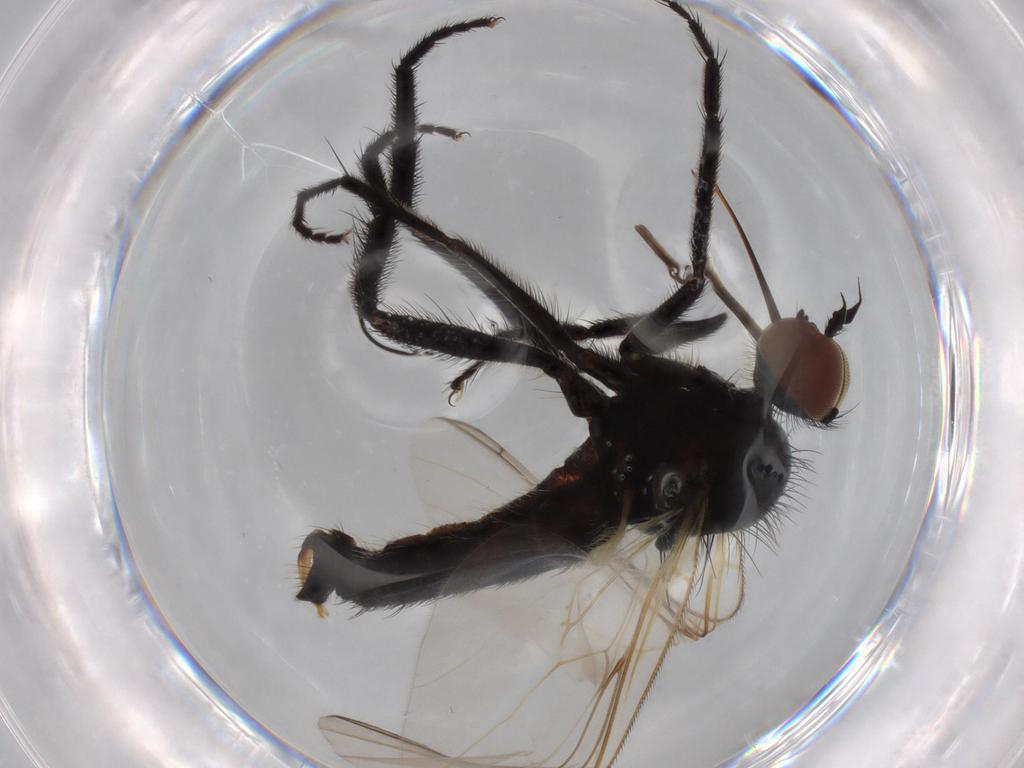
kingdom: Animalia
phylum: Arthropoda
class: Insecta
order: Diptera
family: Empididae
